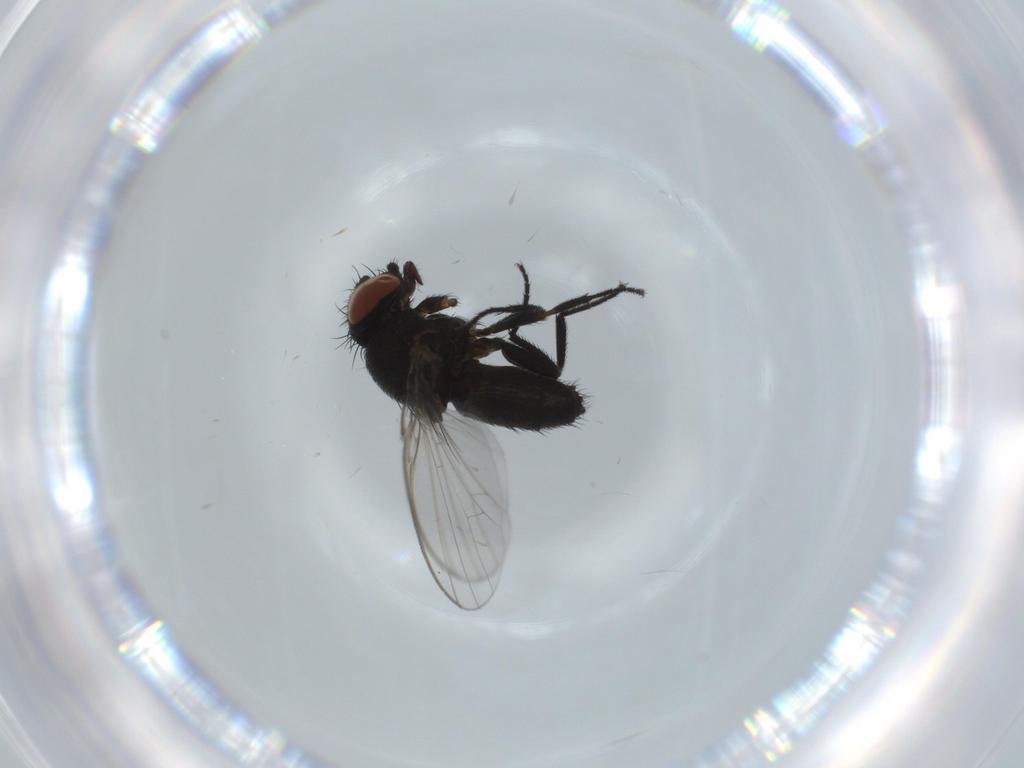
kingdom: Animalia
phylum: Arthropoda
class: Insecta
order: Diptera
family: Milichiidae
